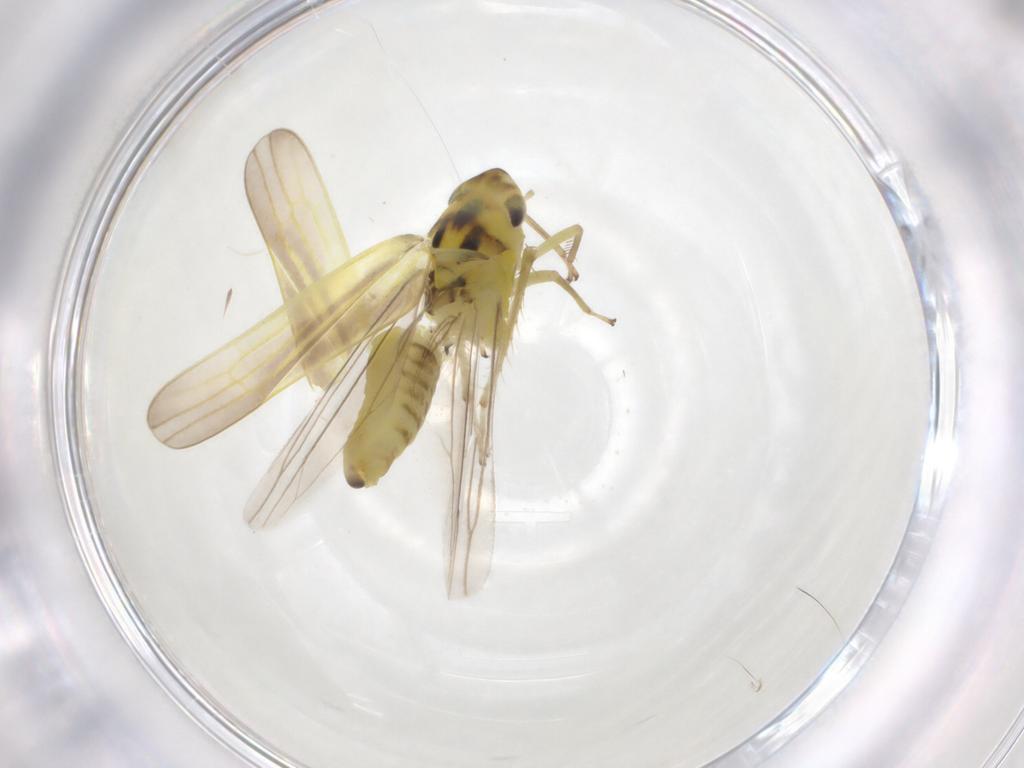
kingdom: Animalia
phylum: Arthropoda
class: Insecta
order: Hemiptera
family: Cicadellidae
